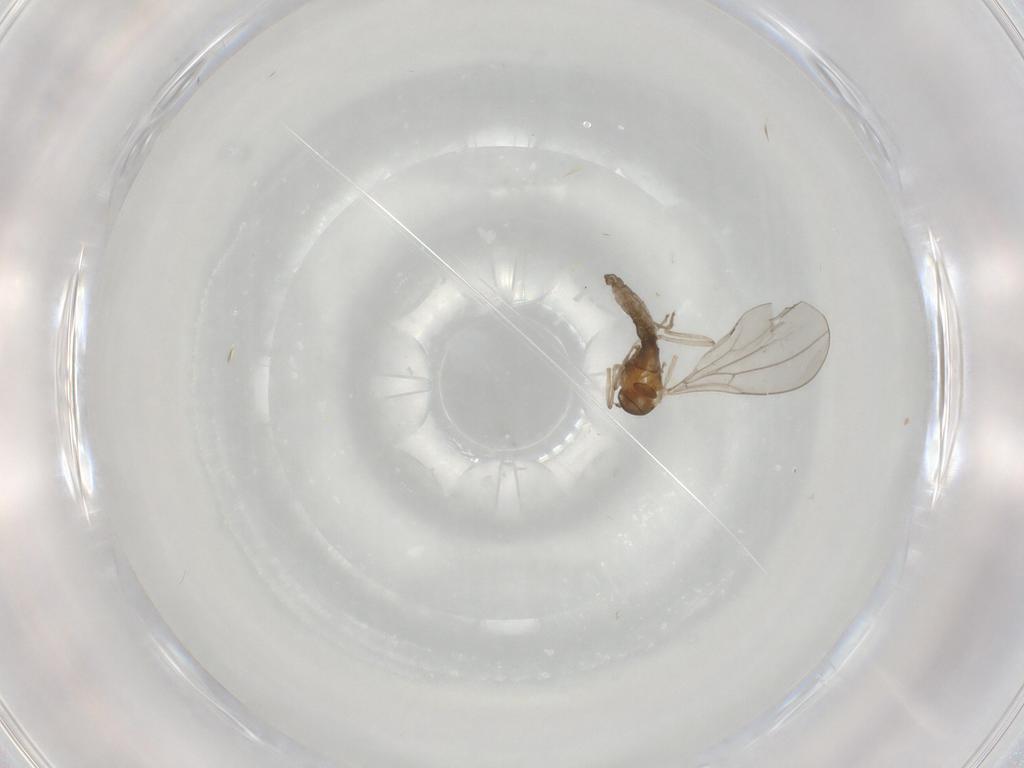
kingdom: Animalia
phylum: Arthropoda
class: Insecta
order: Diptera
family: Cecidomyiidae
